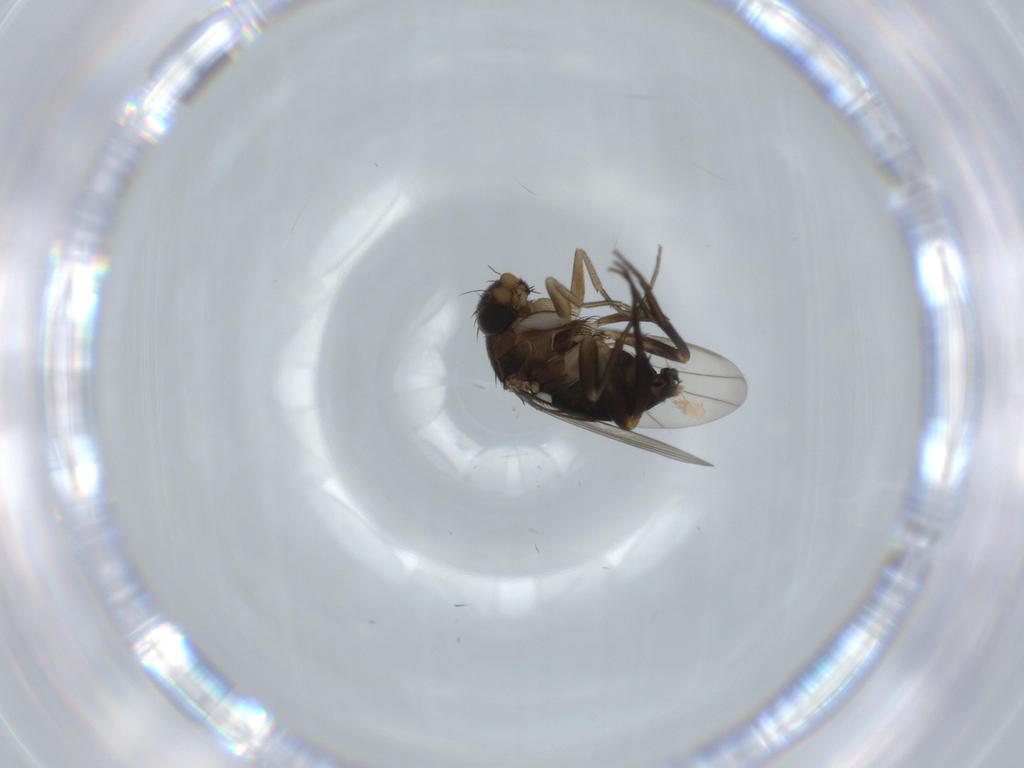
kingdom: Animalia
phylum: Arthropoda
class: Insecta
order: Diptera
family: Phoridae
